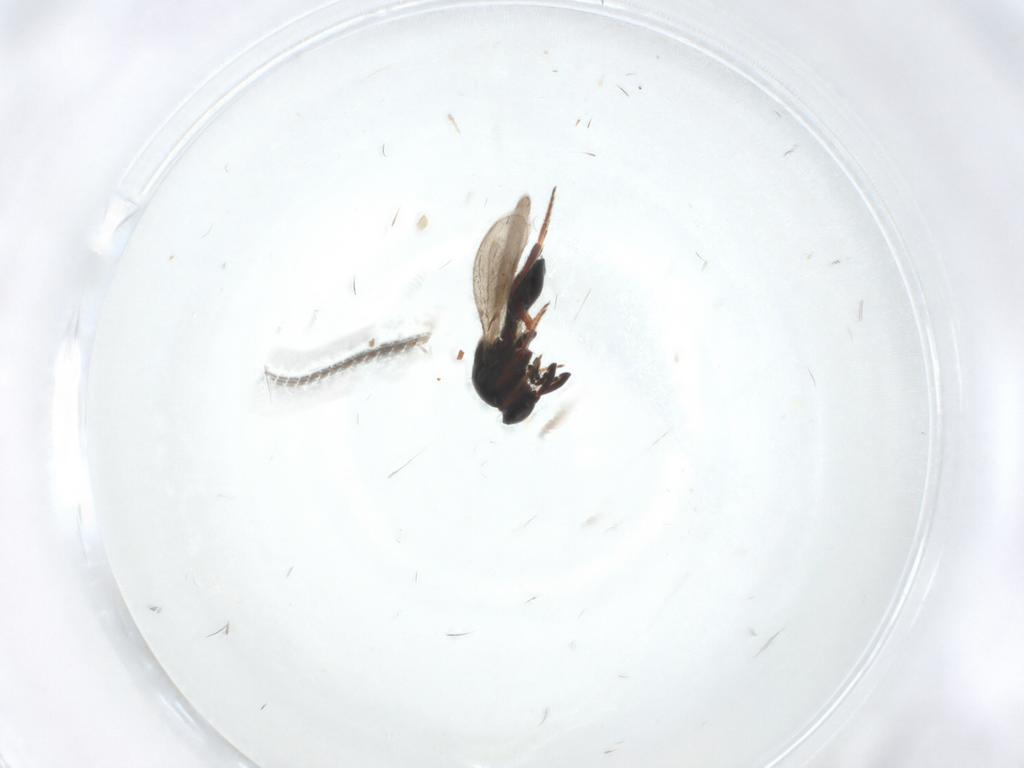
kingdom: Animalia
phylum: Arthropoda
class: Insecta
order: Hymenoptera
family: Platygastridae
